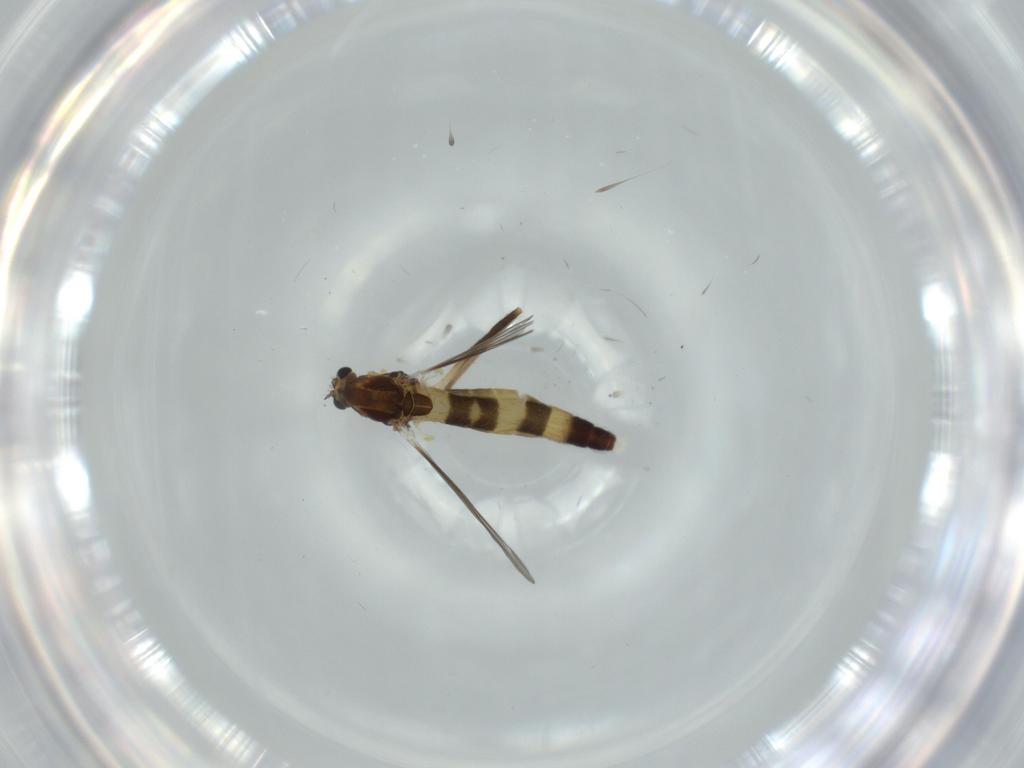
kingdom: Animalia
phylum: Arthropoda
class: Insecta
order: Diptera
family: Chironomidae
